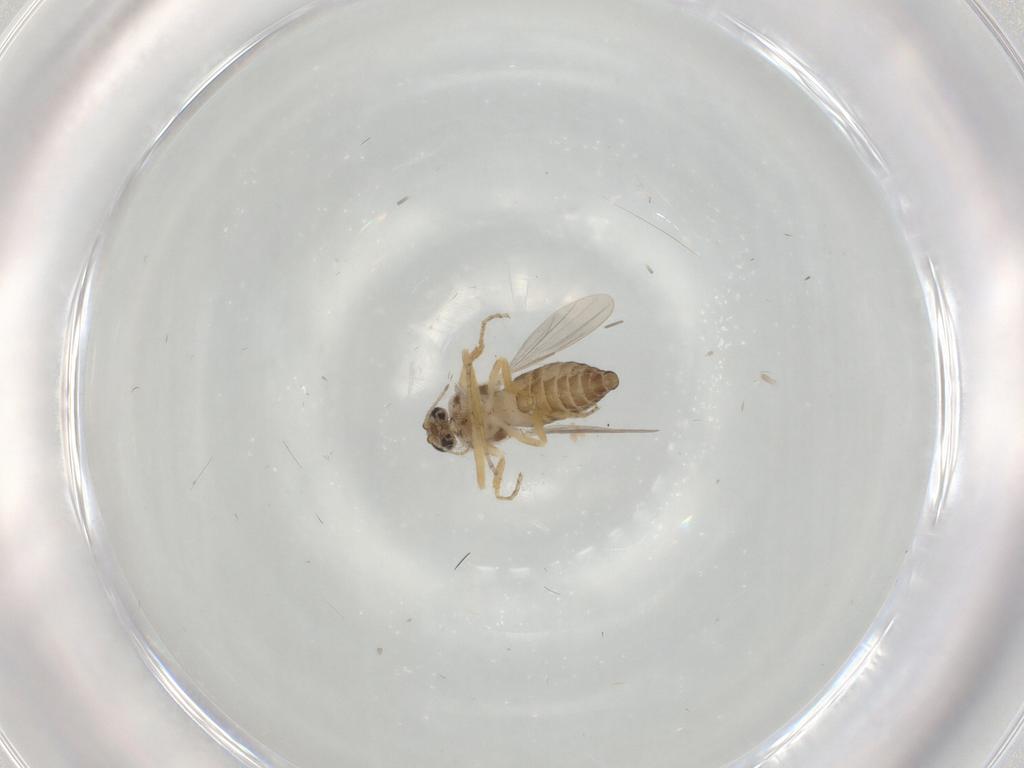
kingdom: Animalia
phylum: Arthropoda
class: Insecta
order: Diptera
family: Ceratopogonidae
